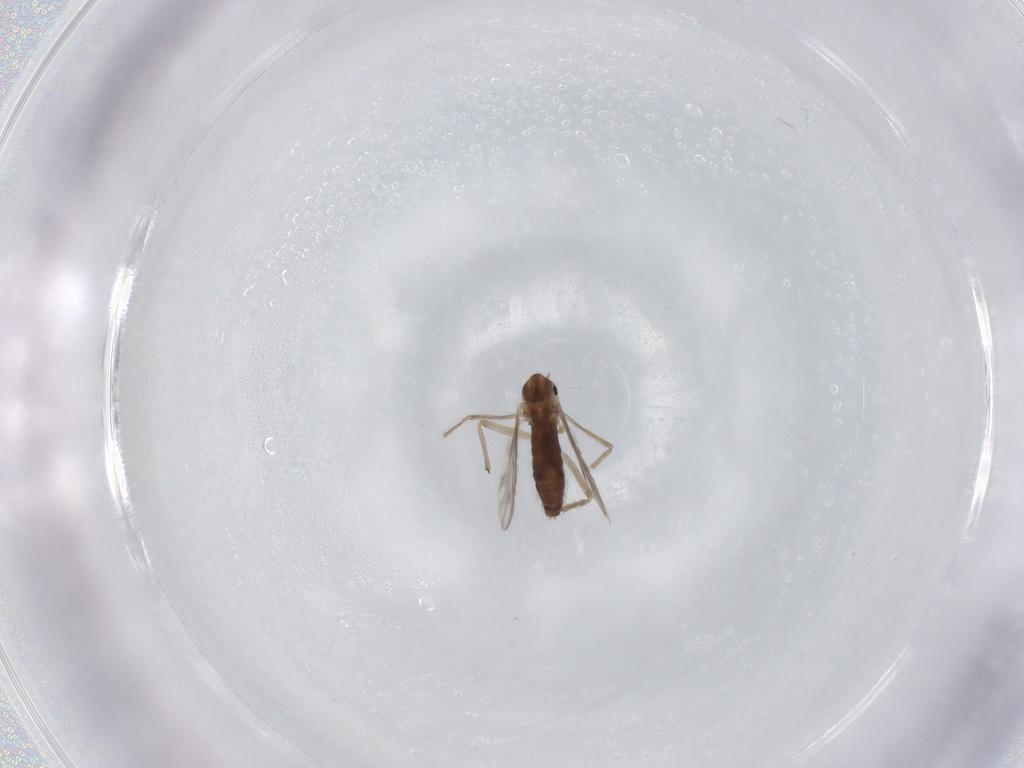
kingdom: Animalia
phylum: Arthropoda
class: Insecta
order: Diptera
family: Chironomidae
